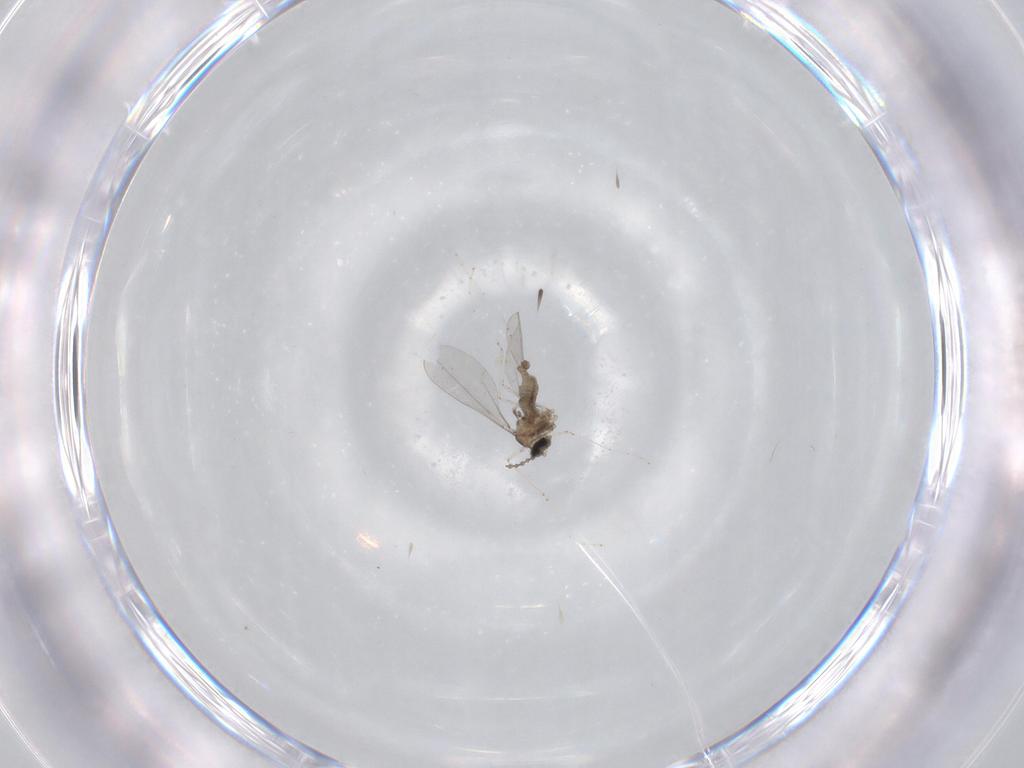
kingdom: Animalia
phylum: Arthropoda
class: Insecta
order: Diptera
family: Cecidomyiidae
